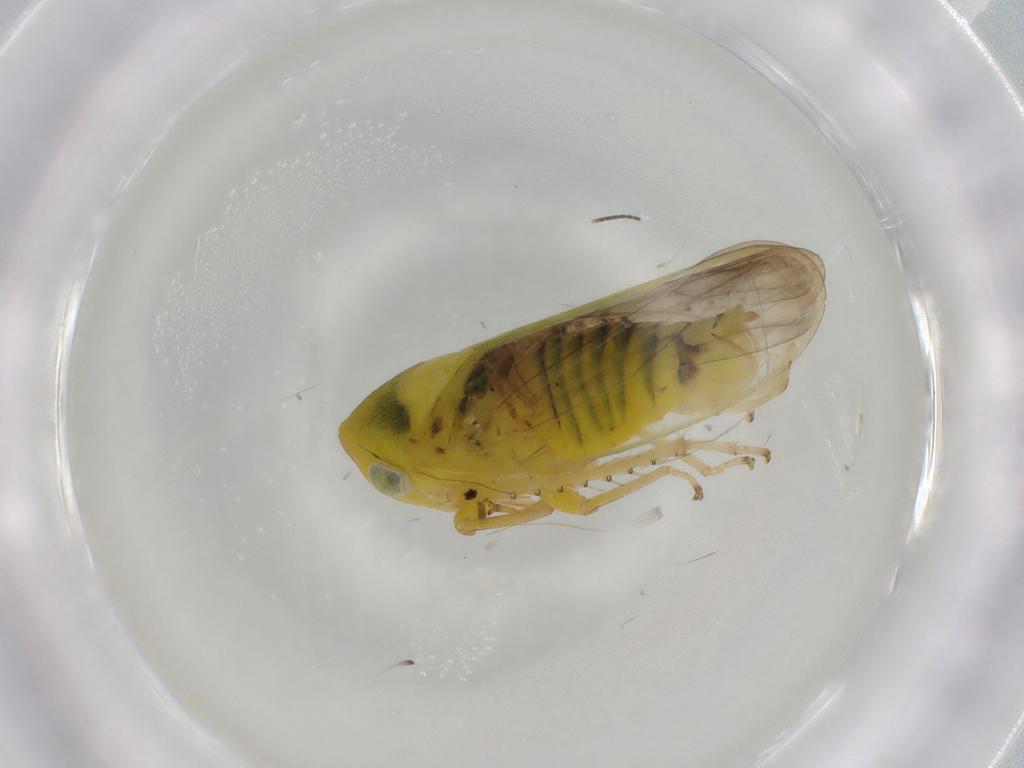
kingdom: Animalia
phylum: Arthropoda
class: Insecta
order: Hemiptera
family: Cicadellidae
